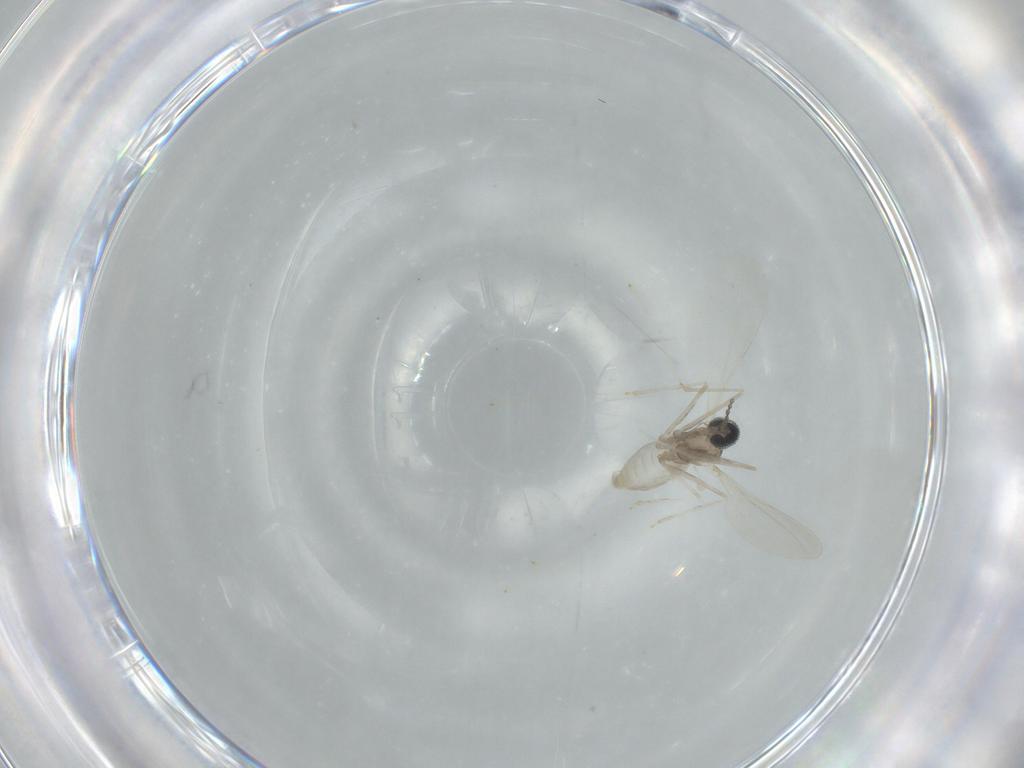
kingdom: Animalia
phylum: Arthropoda
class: Insecta
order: Diptera
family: Cecidomyiidae
